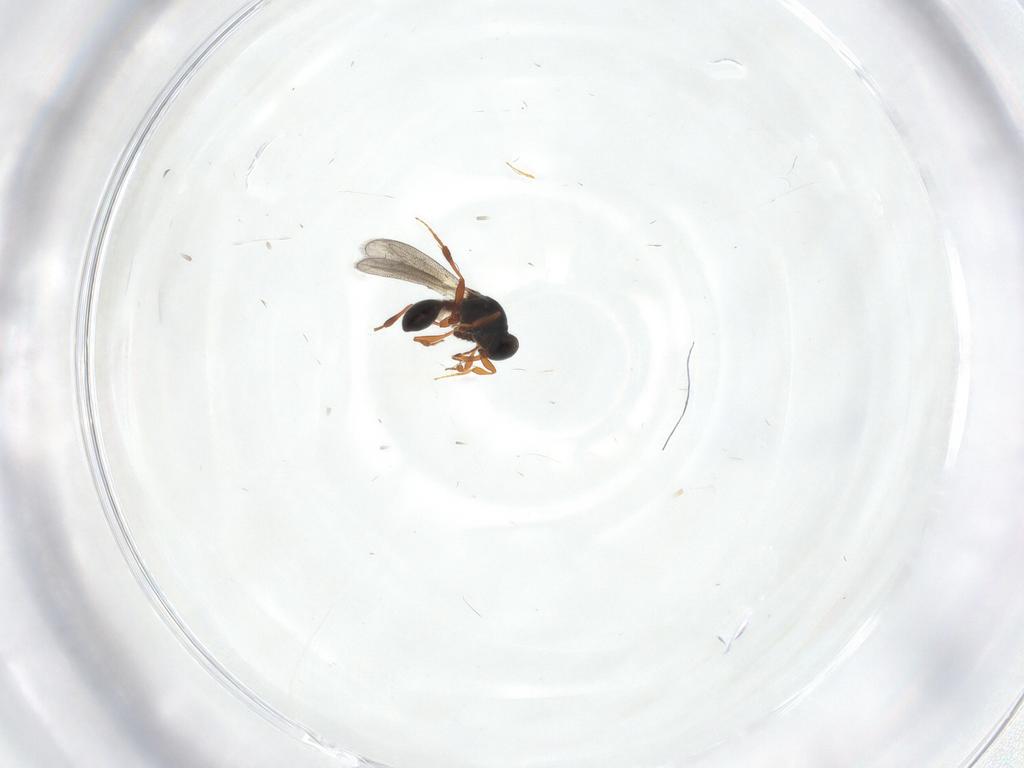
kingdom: Animalia
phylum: Arthropoda
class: Insecta
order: Hymenoptera
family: Platygastridae
